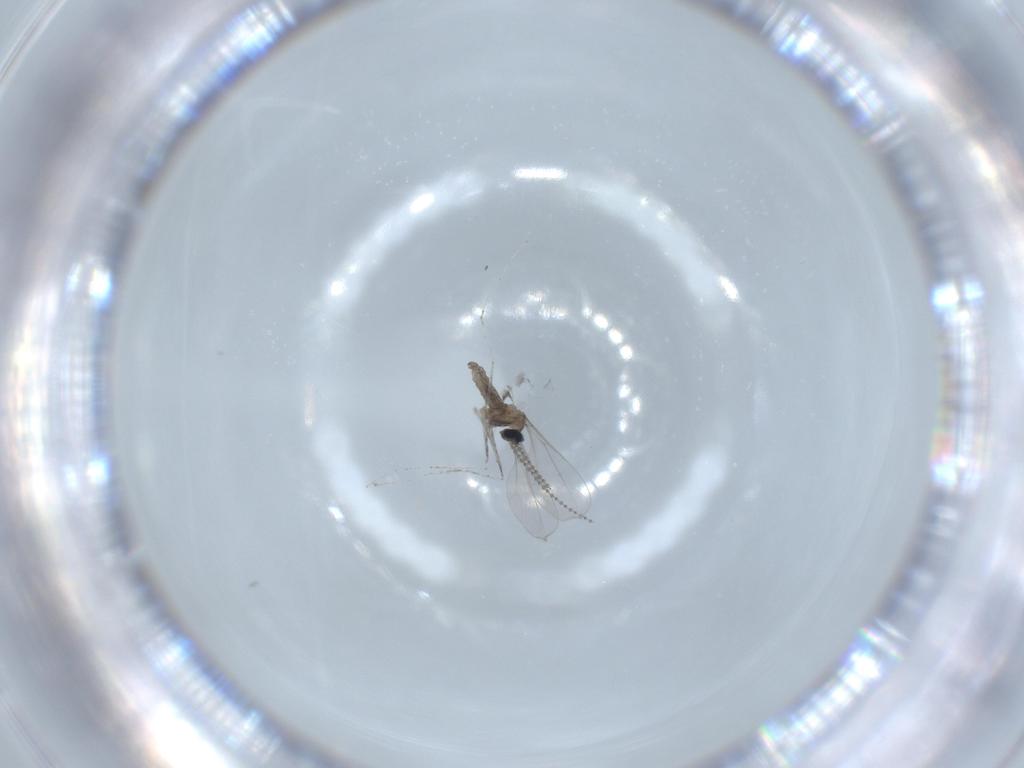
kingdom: Animalia
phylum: Arthropoda
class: Insecta
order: Diptera
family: Cecidomyiidae
